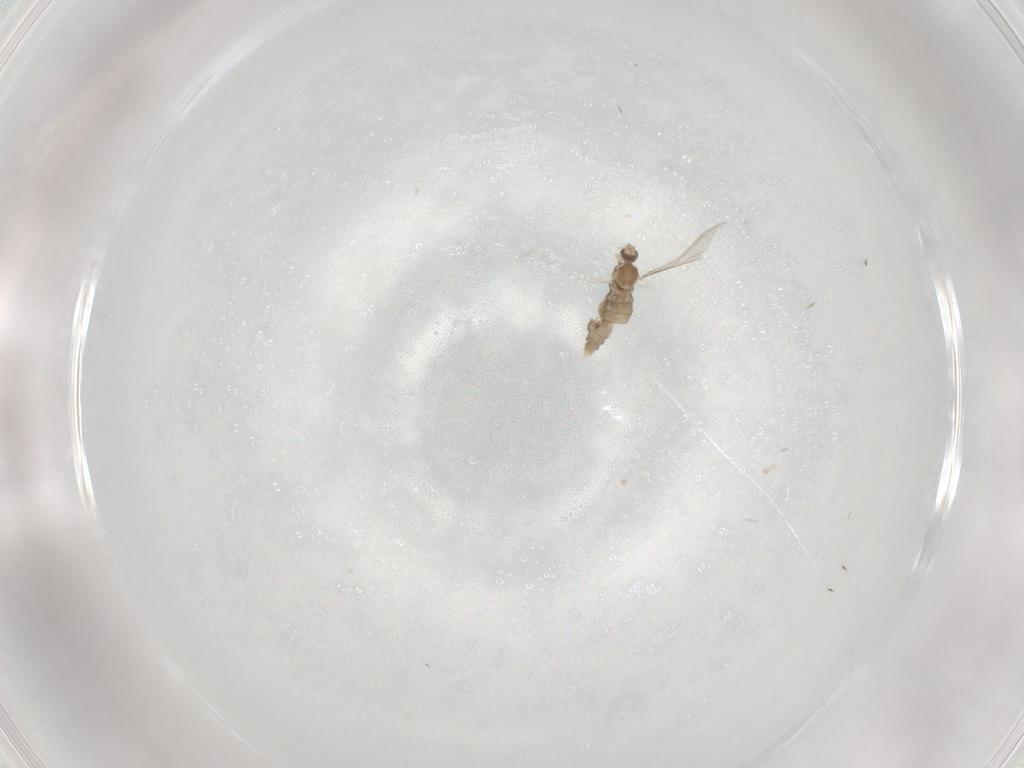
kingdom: Animalia
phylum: Arthropoda
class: Insecta
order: Diptera
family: Cecidomyiidae
